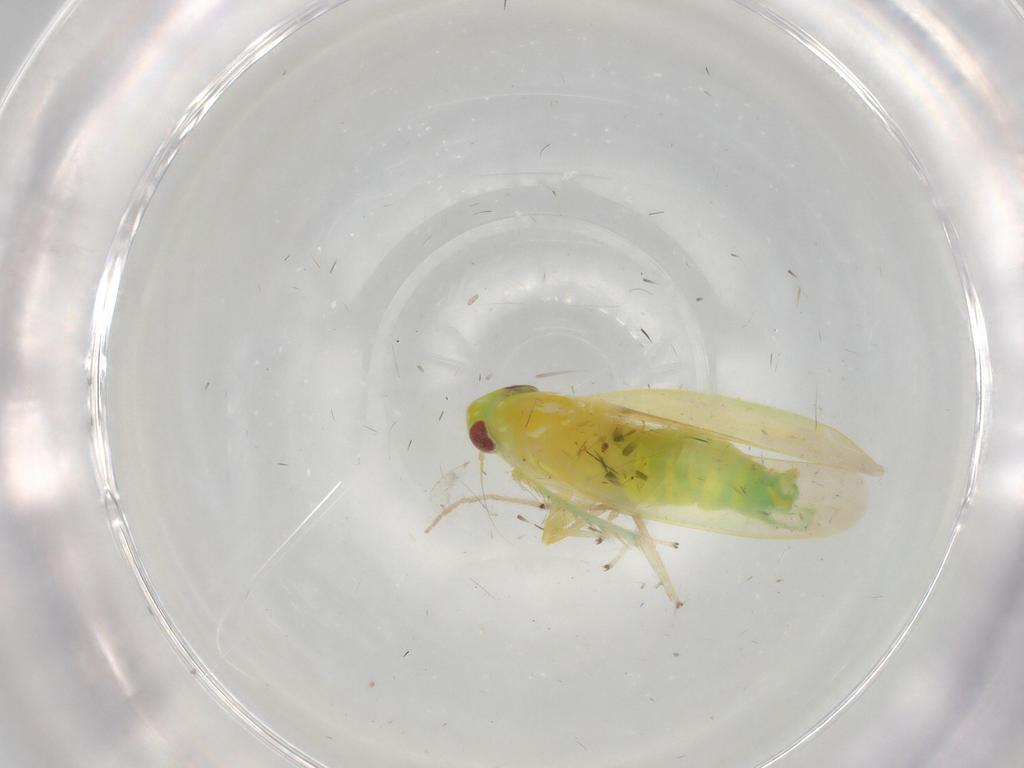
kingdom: Animalia
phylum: Arthropoda
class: Insecta
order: Hemiptera
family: Cicadellidae
